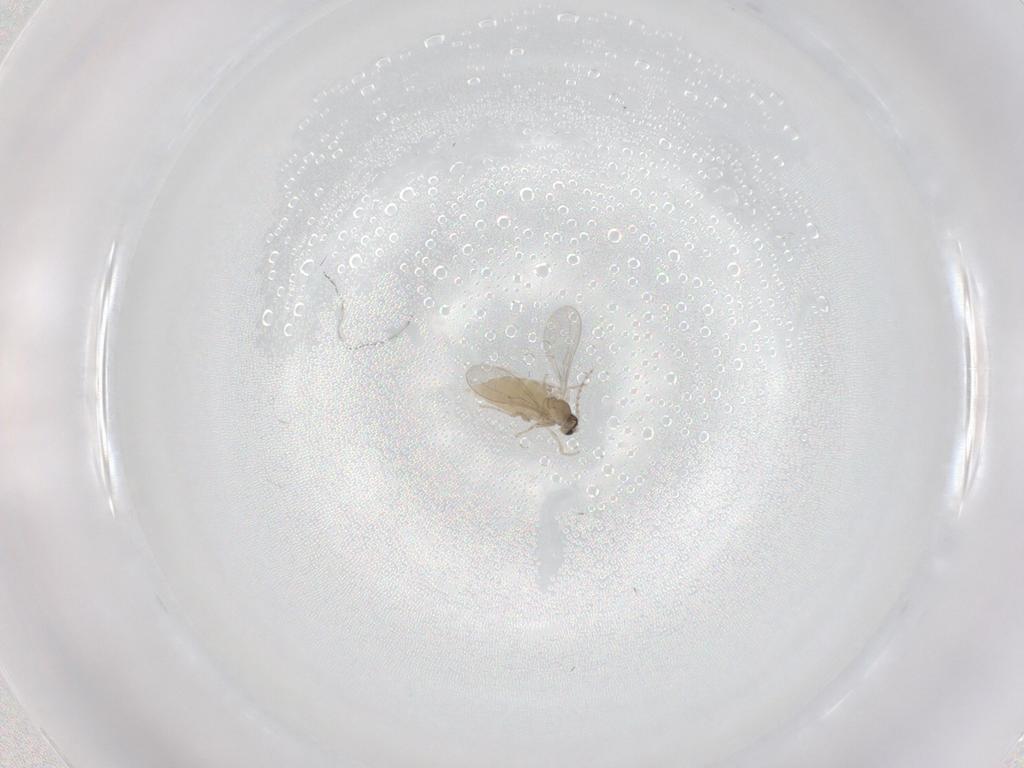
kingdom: Animalia
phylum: Arthropoda
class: Insecta
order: Diptera
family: Cecidomyiidae
